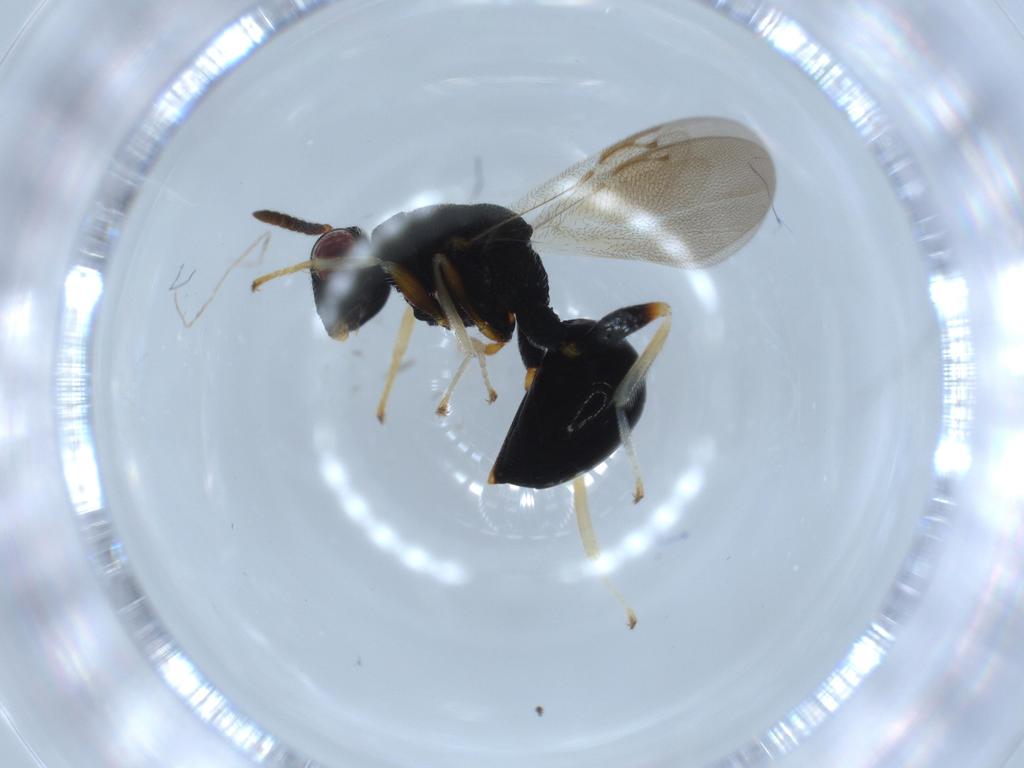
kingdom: Animalia
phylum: Arthropoda
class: Insecta
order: Hymenoptera
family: Bethylidae
